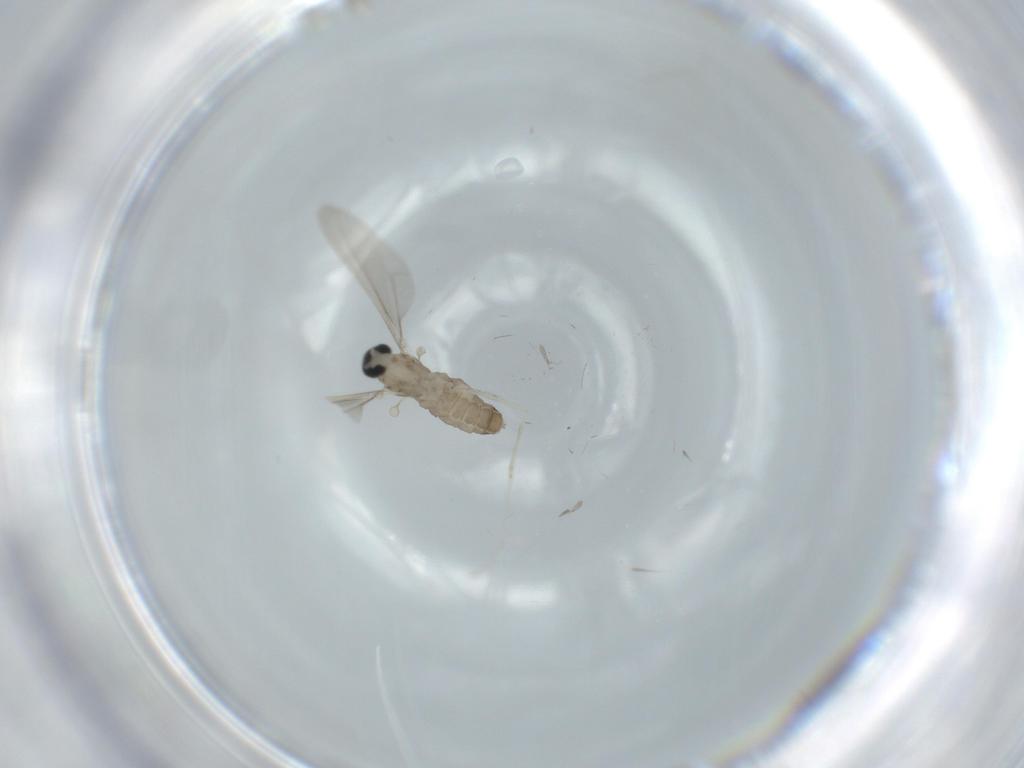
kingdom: Animalia
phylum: Arthropoda
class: Insecta
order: Diptera
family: Cecidomyiidae
